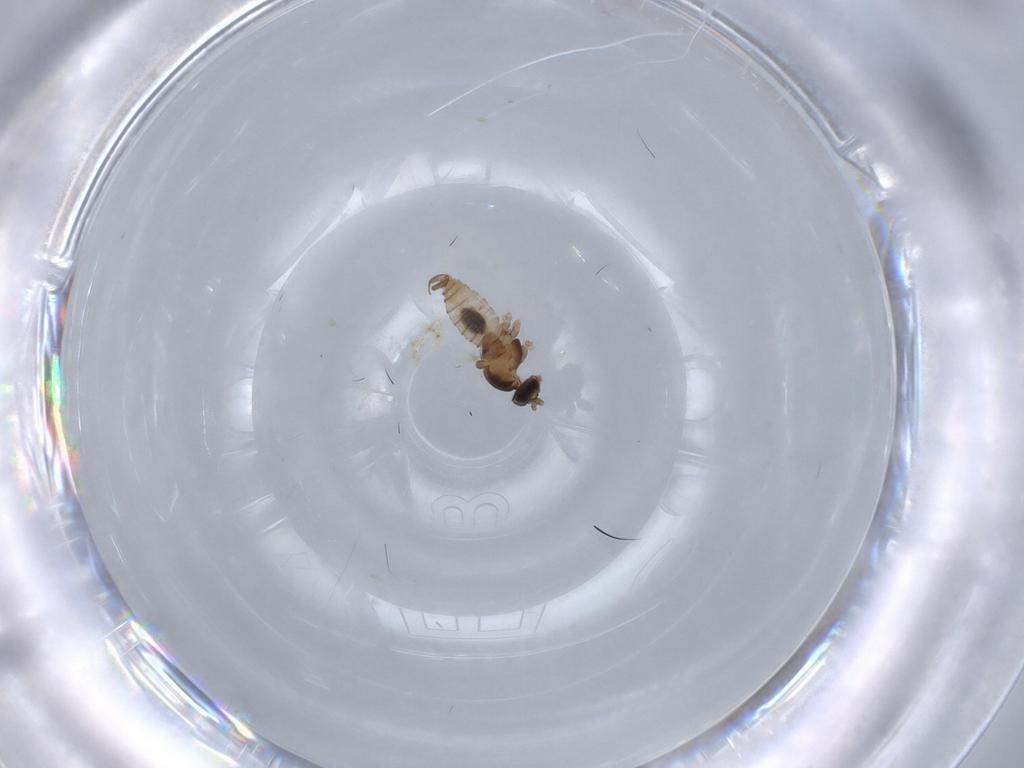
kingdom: Animalia
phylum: Arthropoda
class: Insecta
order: Diptera
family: Cecidomyiidae
